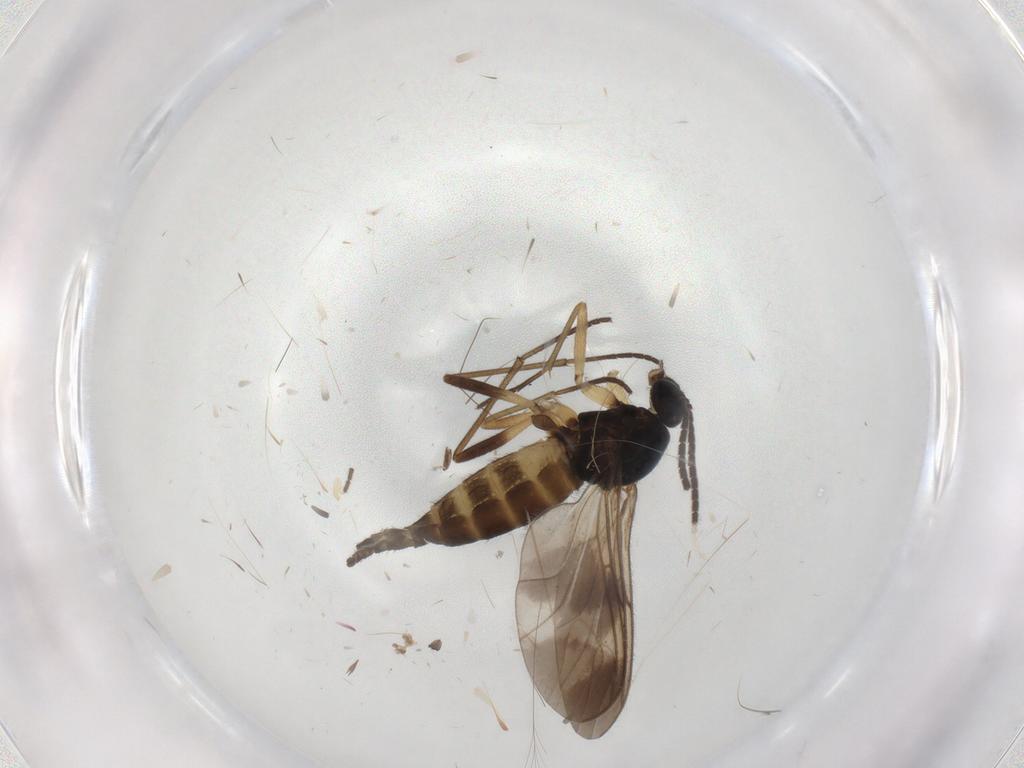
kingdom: Animalia
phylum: Arthropoda
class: Insecta
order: Diptera
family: Sciaridae
